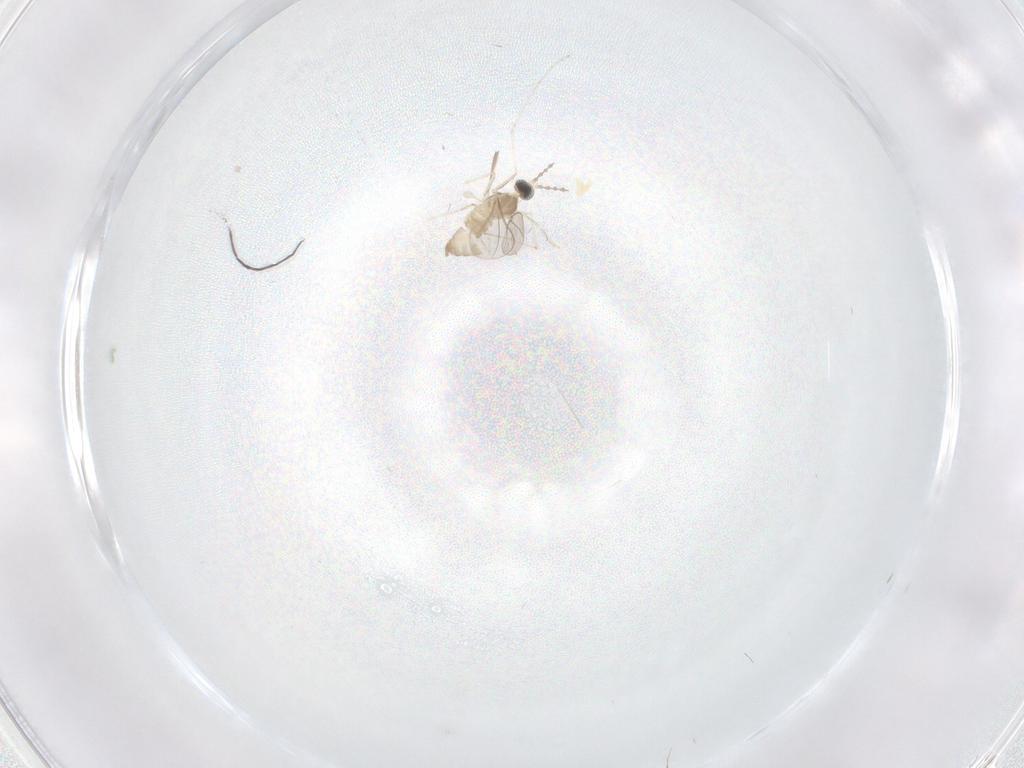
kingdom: Animalia
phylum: Arthropoda
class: Insecta
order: Diptera
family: Cecidomyiidae
